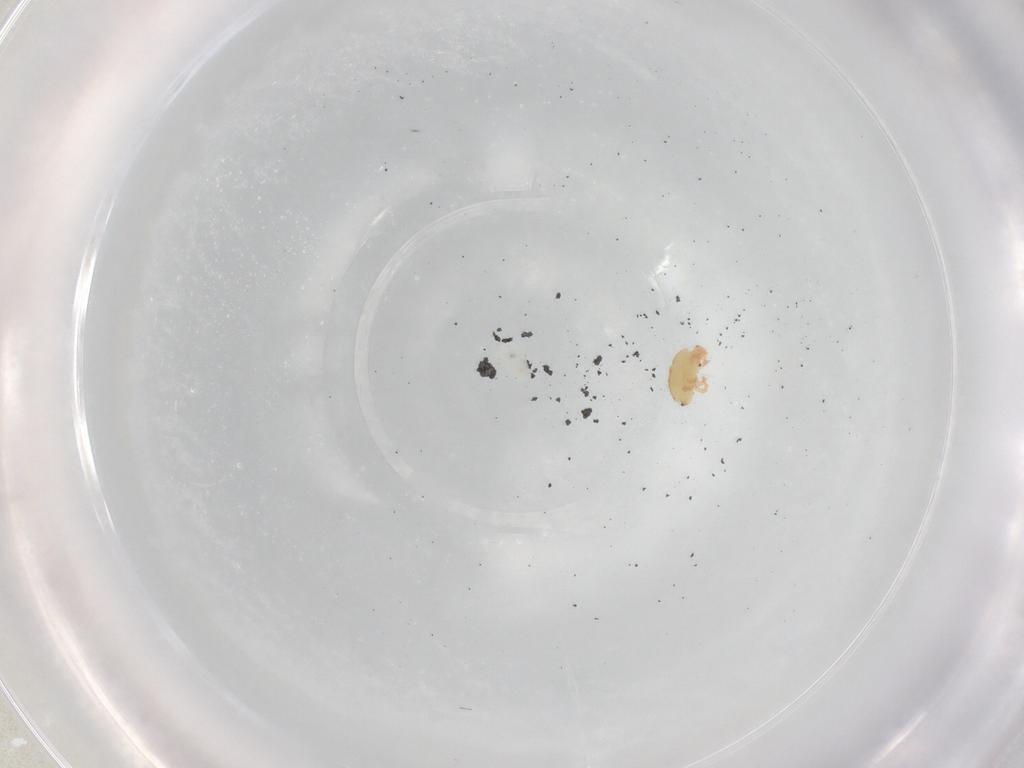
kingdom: Animalia
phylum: Arthropoda
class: Arachnida
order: Trombidiformes
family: Stigmaeidae
